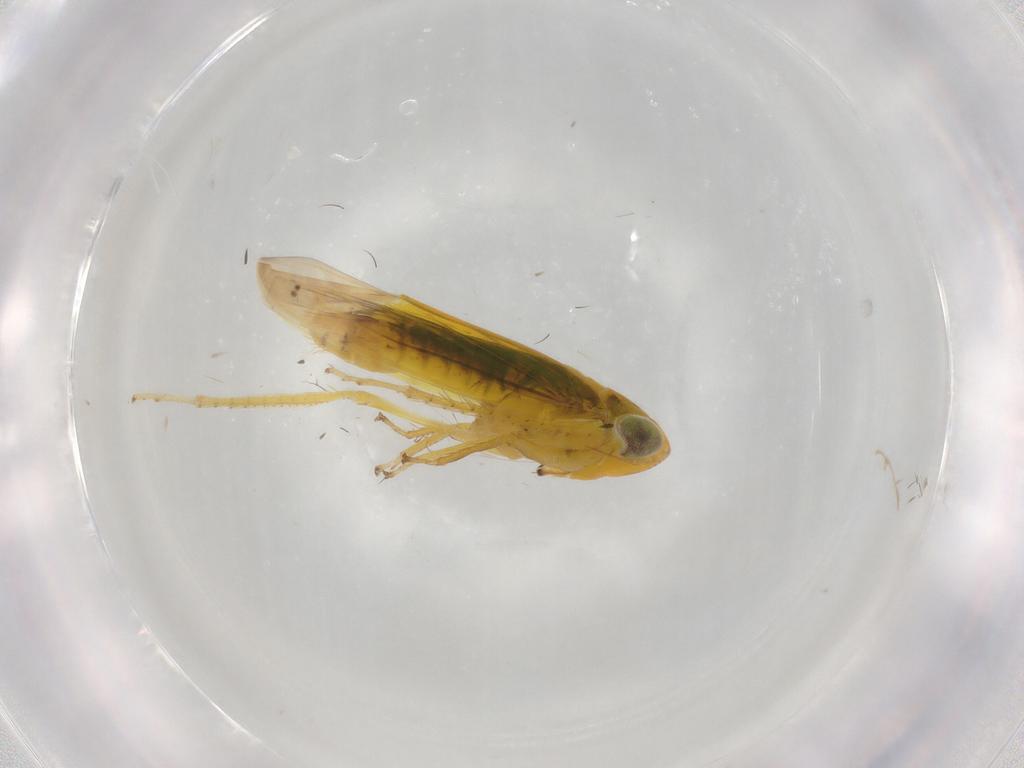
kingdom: Animalia
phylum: Arthropoda
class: Insecta
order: Hemiptera
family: Cicadellidae
